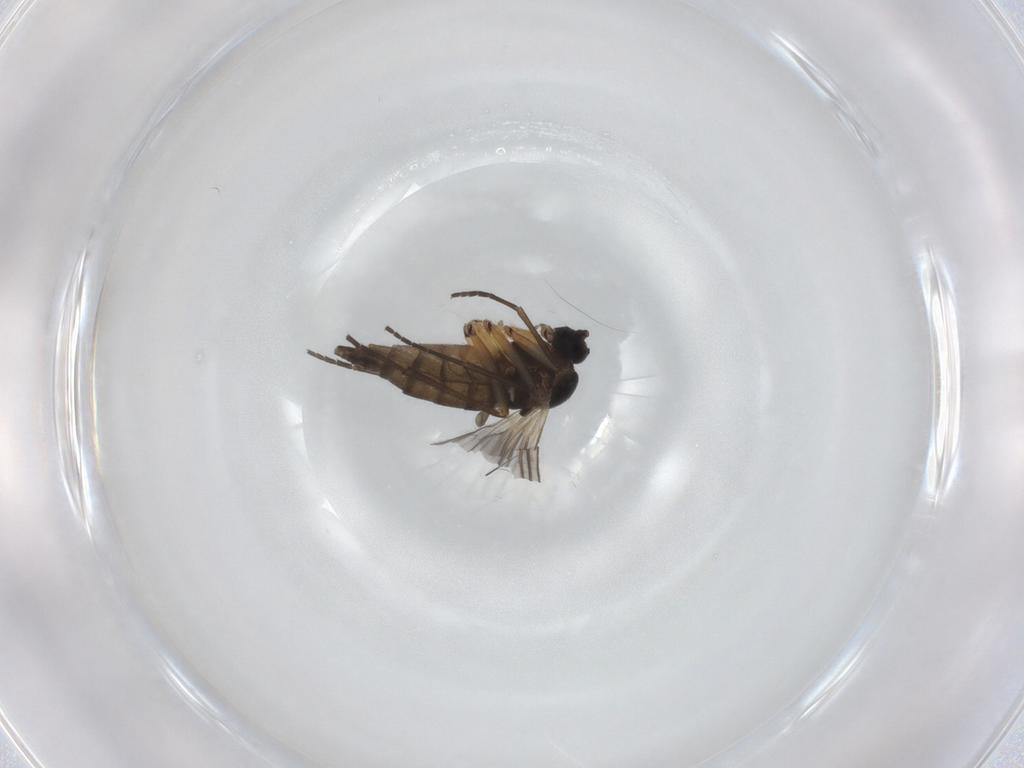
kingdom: Animalia
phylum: Arthropoda
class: Insecta
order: Diptera
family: Sciaridae
